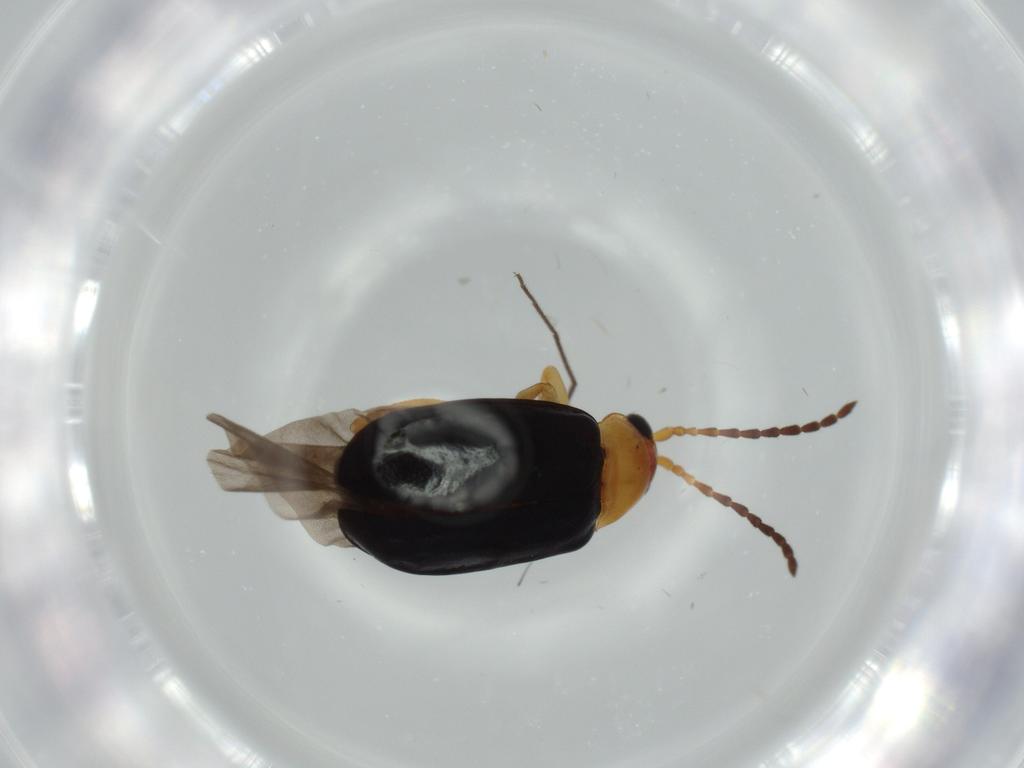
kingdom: Animalia
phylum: Arthropoda
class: Insecta
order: Coleoptera
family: Chrysomelidae
